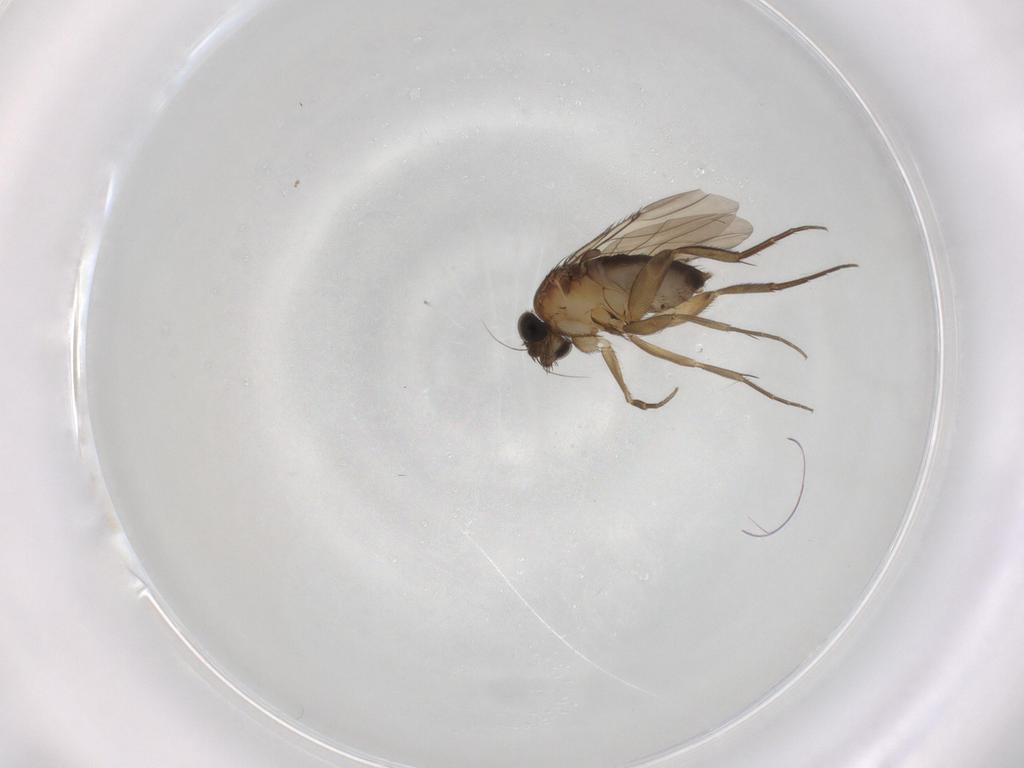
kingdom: Animalia
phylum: Arthropoda
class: Insecta
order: Diptera
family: Phoridae
